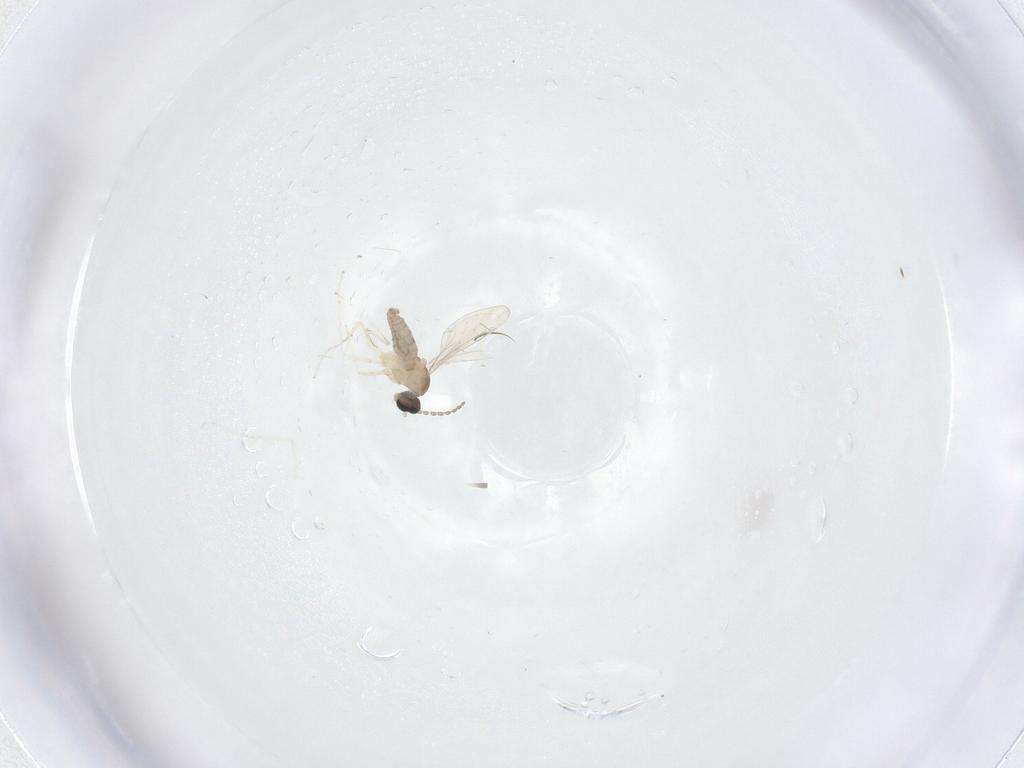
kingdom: Animalia
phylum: Arthropoda
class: Insecta
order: Diptera
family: Cecidomyiidae
